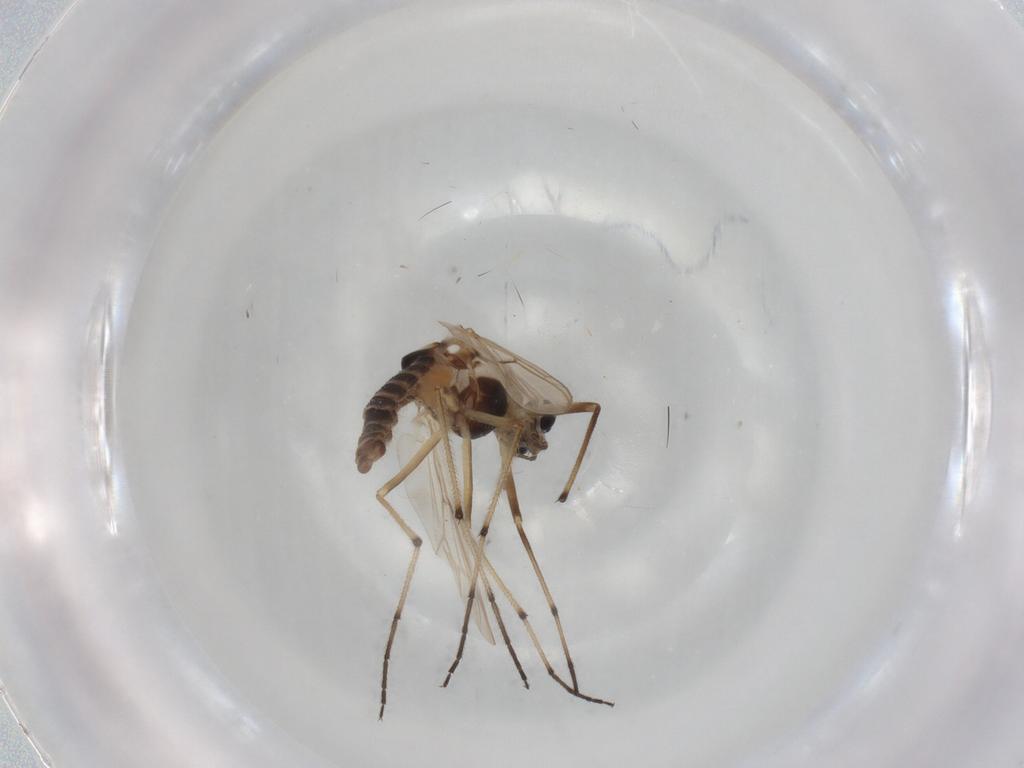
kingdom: Animalia
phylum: Arthropoda
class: Insecta
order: Diptera
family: Chironomidae
